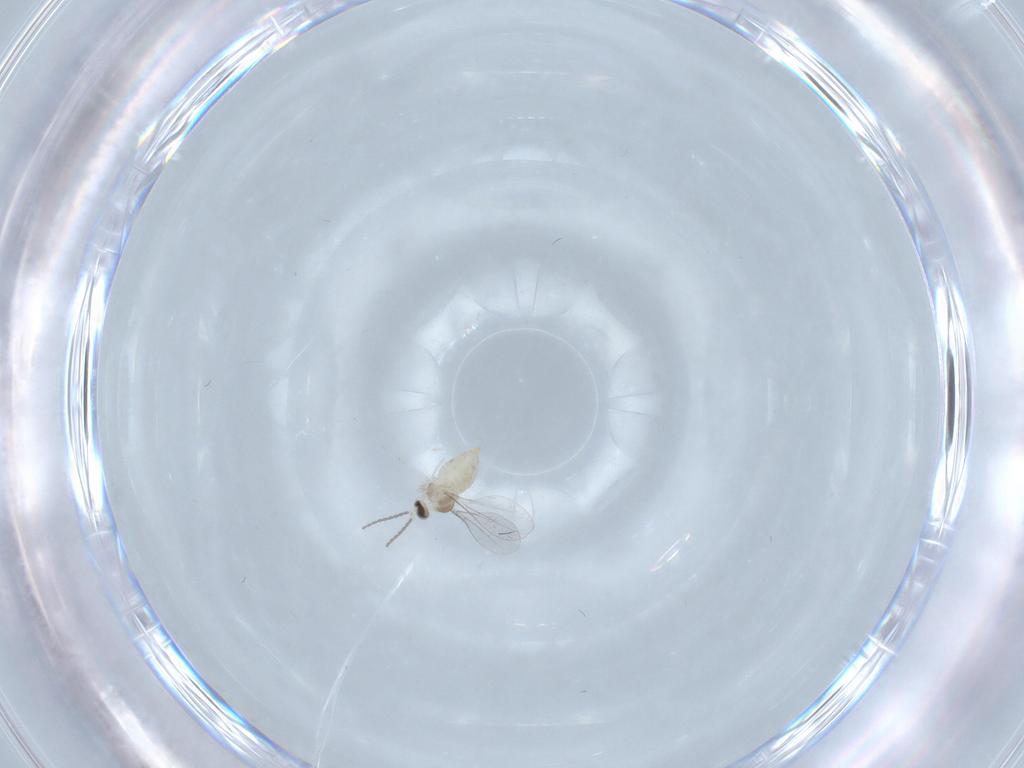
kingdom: Animalia
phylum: Arthropoda
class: Insecta
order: Diptera
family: Cecidomyiidae
